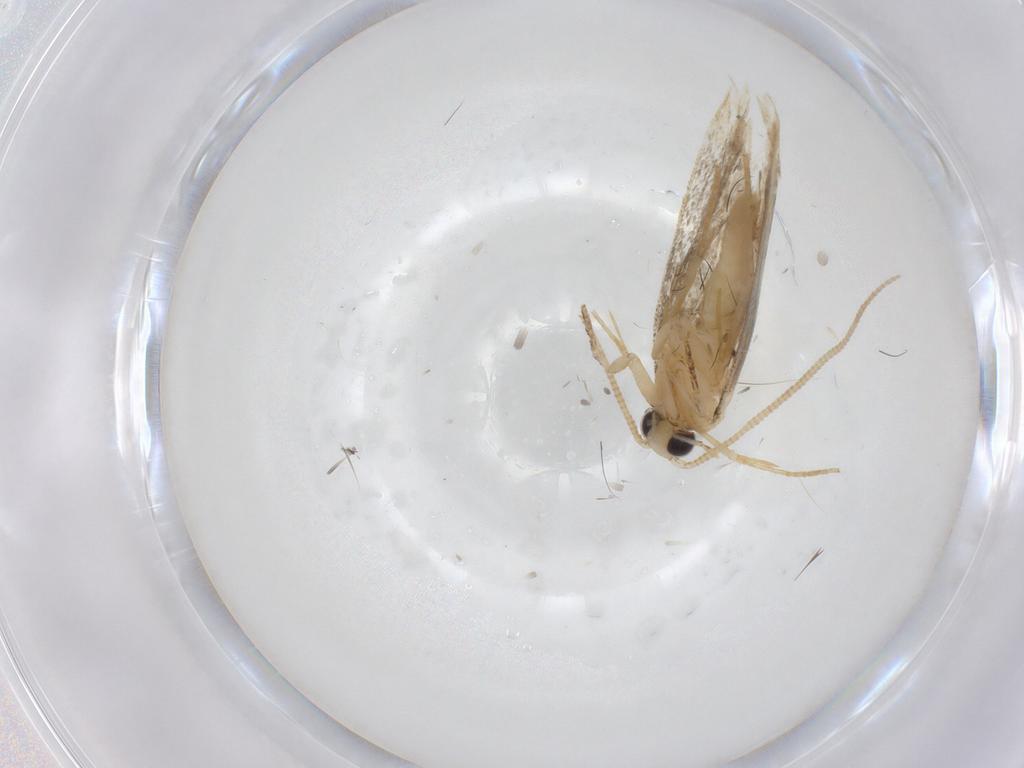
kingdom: Animalia
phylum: Arthropoda
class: Insecta
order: Lepidoptera
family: Tineidae
